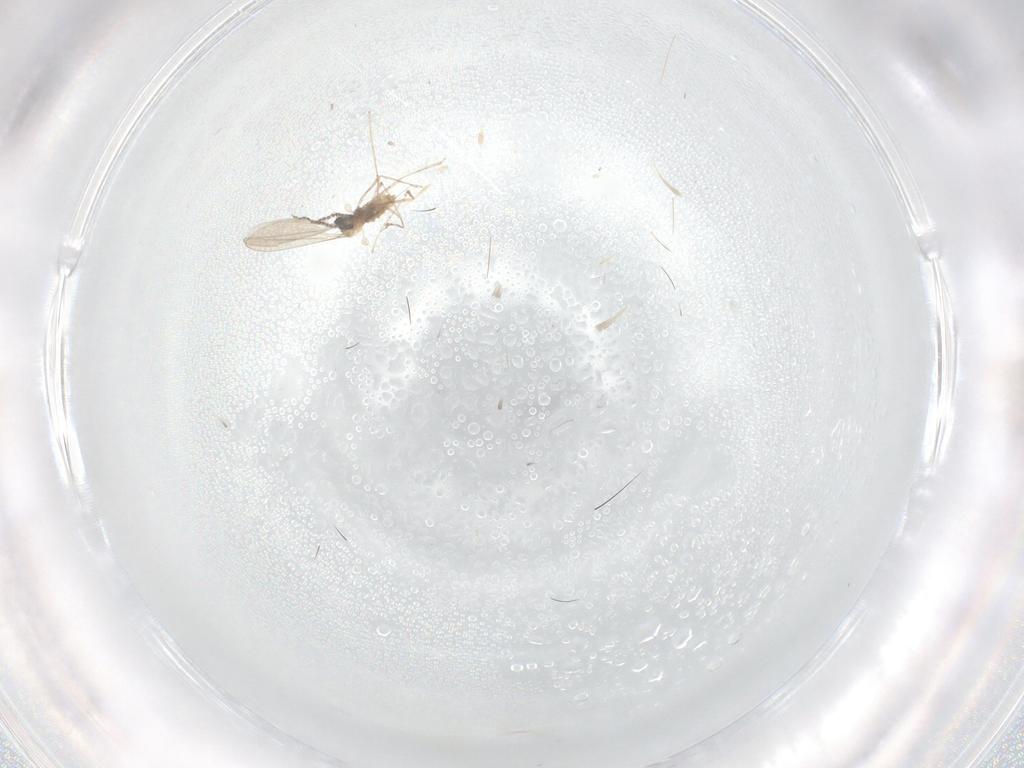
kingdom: Animalia
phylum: Arthropoda
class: Insecta
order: Diptera
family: Cecidomyiidae
